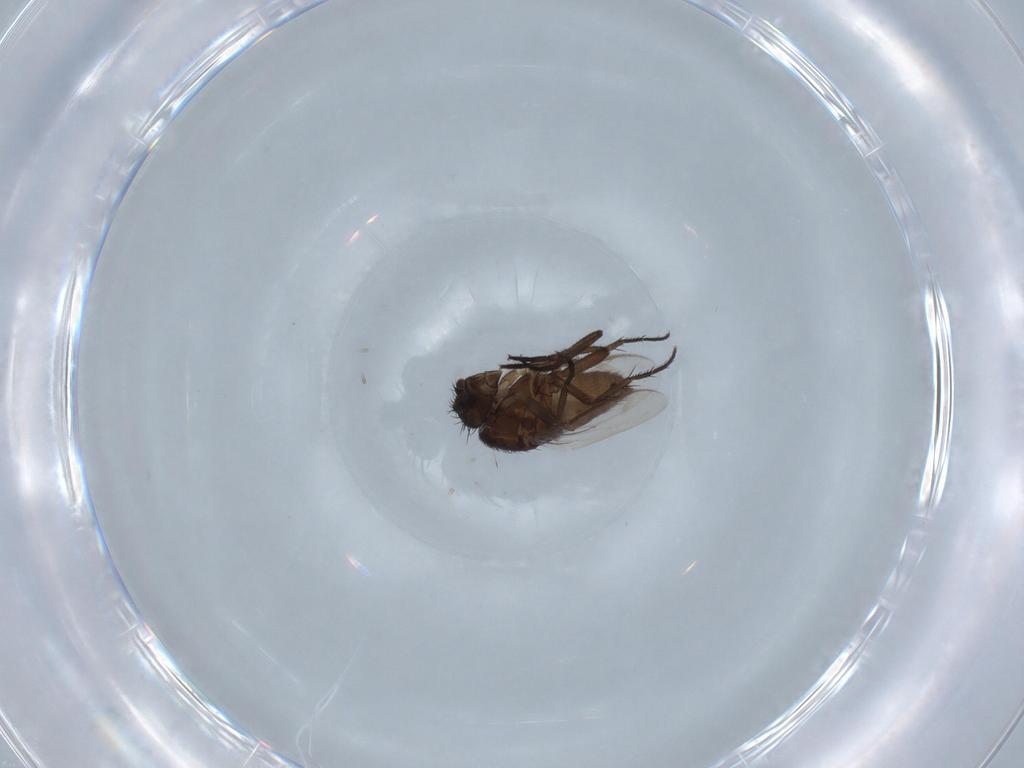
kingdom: Animalia
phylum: Arthropoda
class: Insecta
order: Diptera
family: Sphaeroceridae
